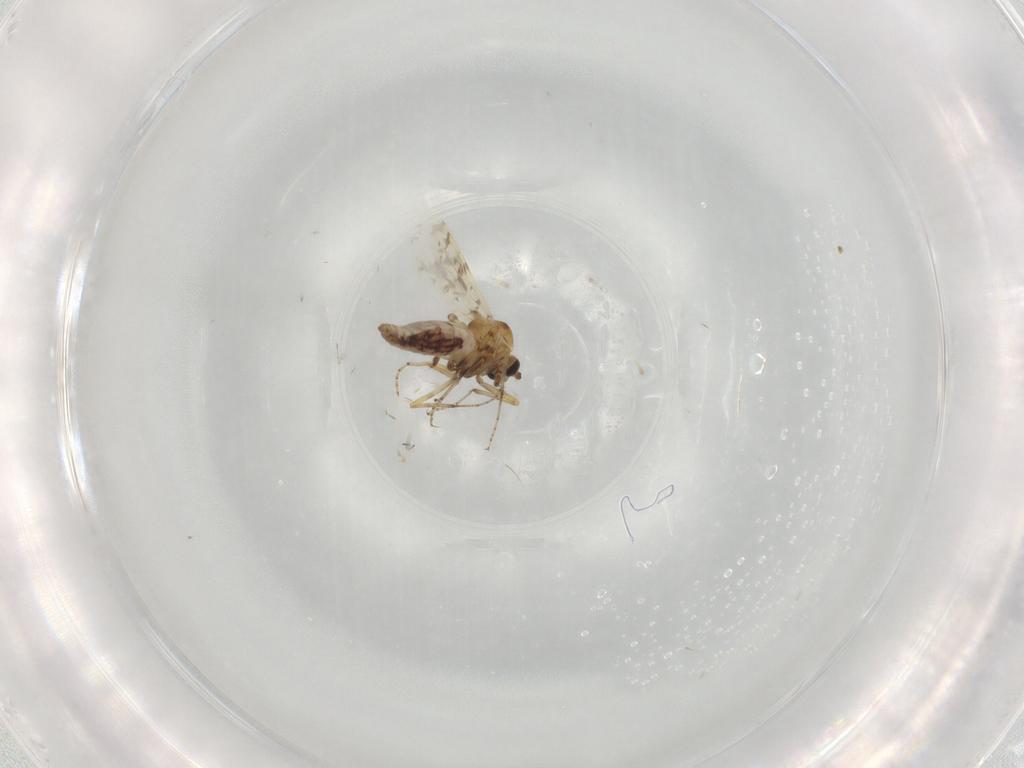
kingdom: Animalia
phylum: Arthropoda
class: Insecta
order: Diptera
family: Ceratopogonidae
